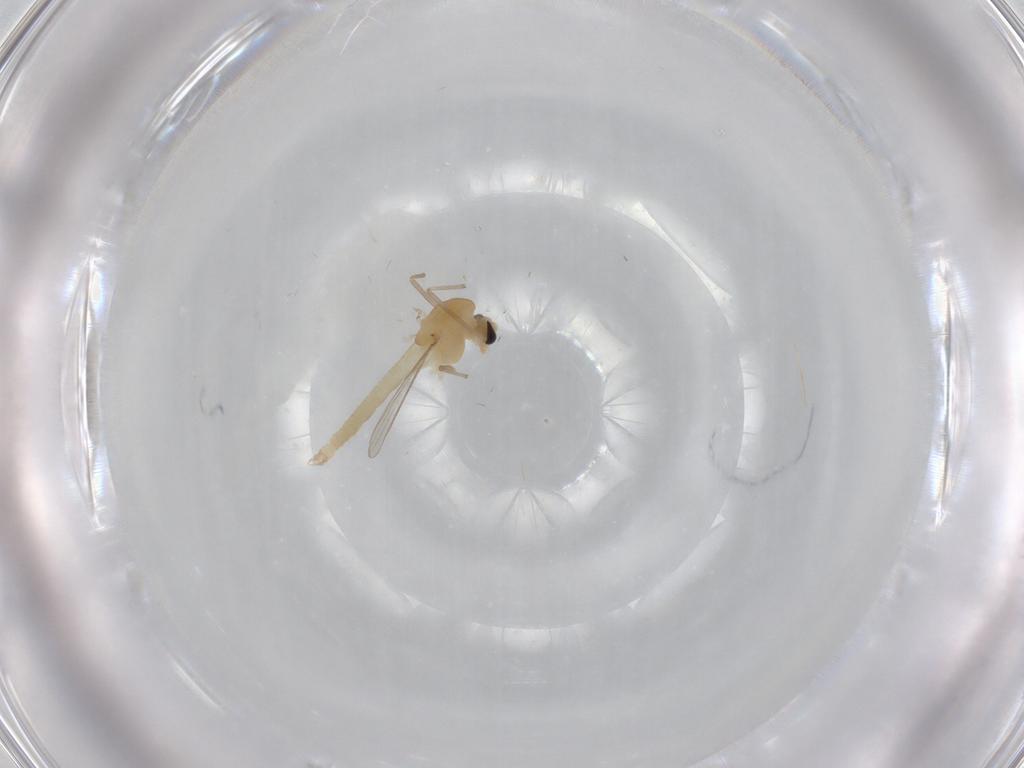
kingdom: Animalia
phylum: Arthropoda
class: Insecta
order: Diptera
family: Chironomidae
